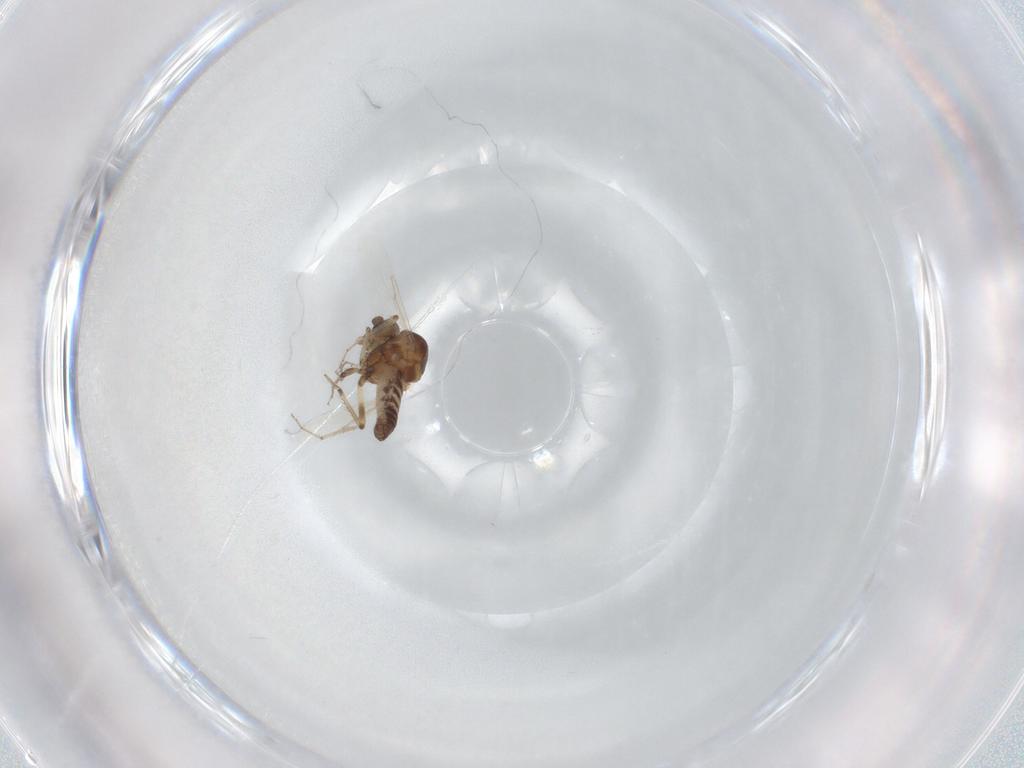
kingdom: Animalia
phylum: Arthropoda
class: Insecta
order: Diptera
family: Ceratopogonidae
